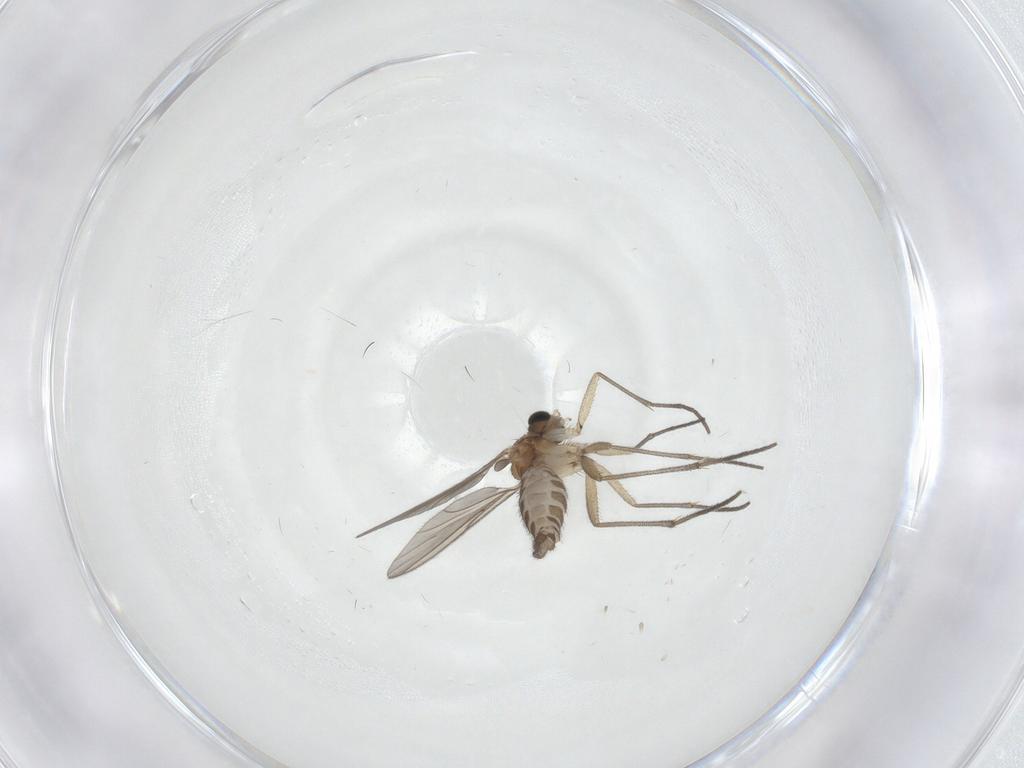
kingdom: Animalia
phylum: Arthropoda
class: Insecta
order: Diptera
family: Sciaridae
